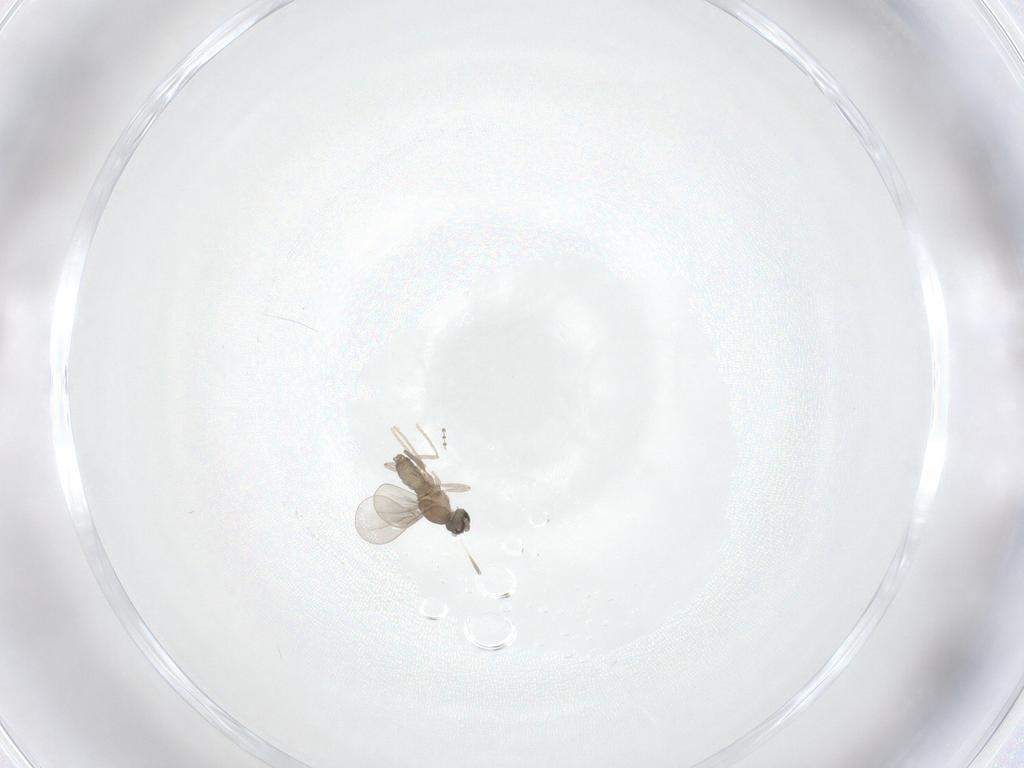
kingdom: Animalia
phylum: Arthropoda
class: Insecta
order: Diptera
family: Cecidomyiidae
